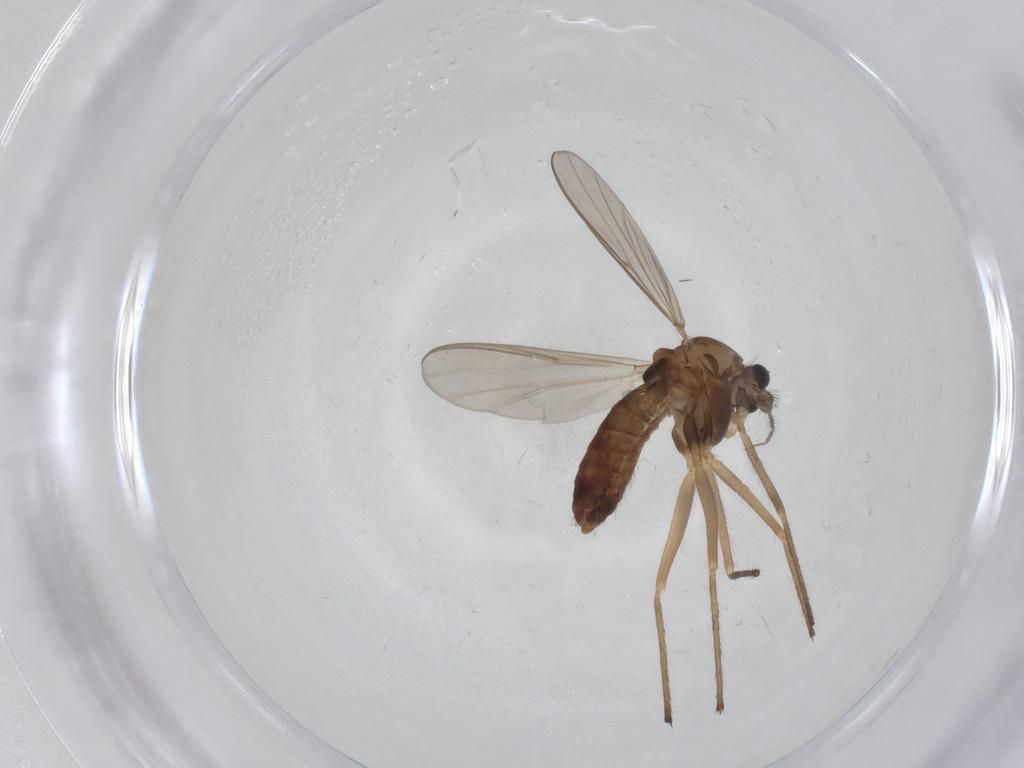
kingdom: Animalia
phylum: Arthropoda
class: Insecta
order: Diptera
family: Chironomidae
